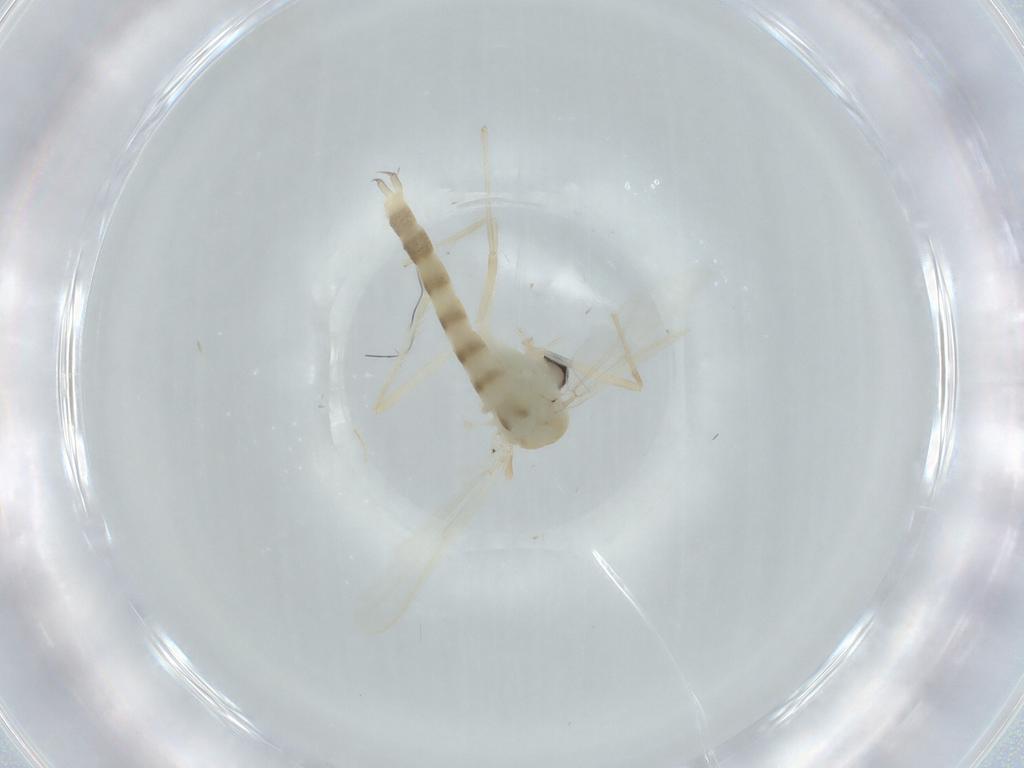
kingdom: Animalia
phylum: Arthropoda
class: Insecta
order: Diptera
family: Chironomidae
